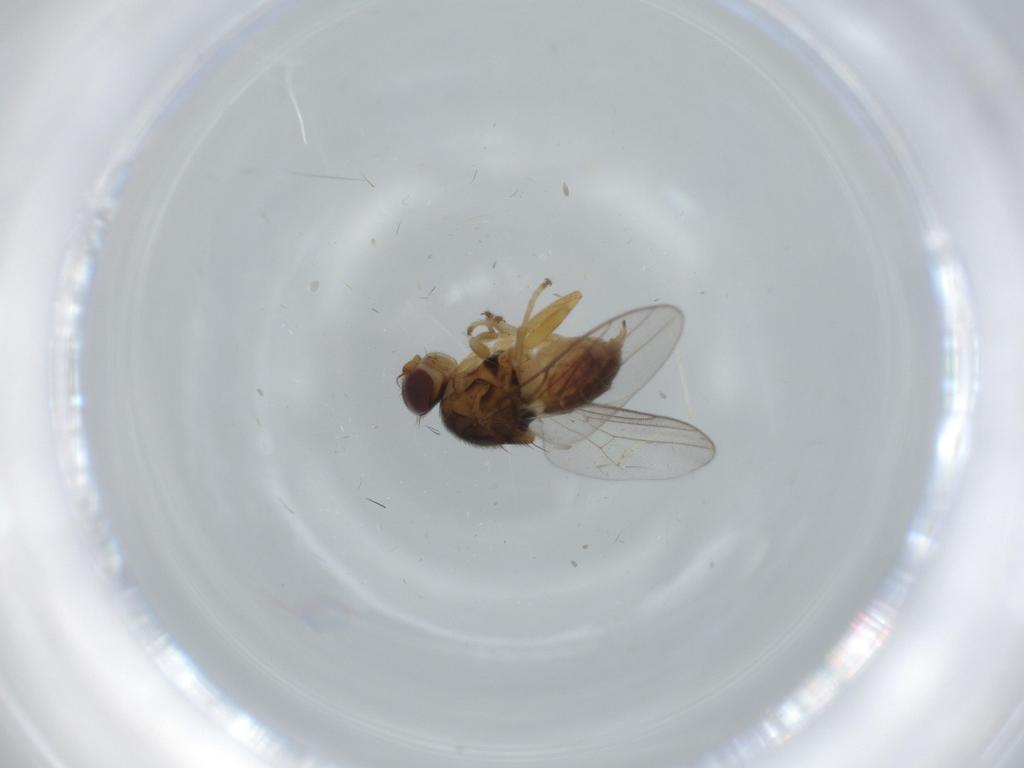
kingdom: Animalia
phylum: Arthropoda
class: Insecta
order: Diptera
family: Chloropidae
